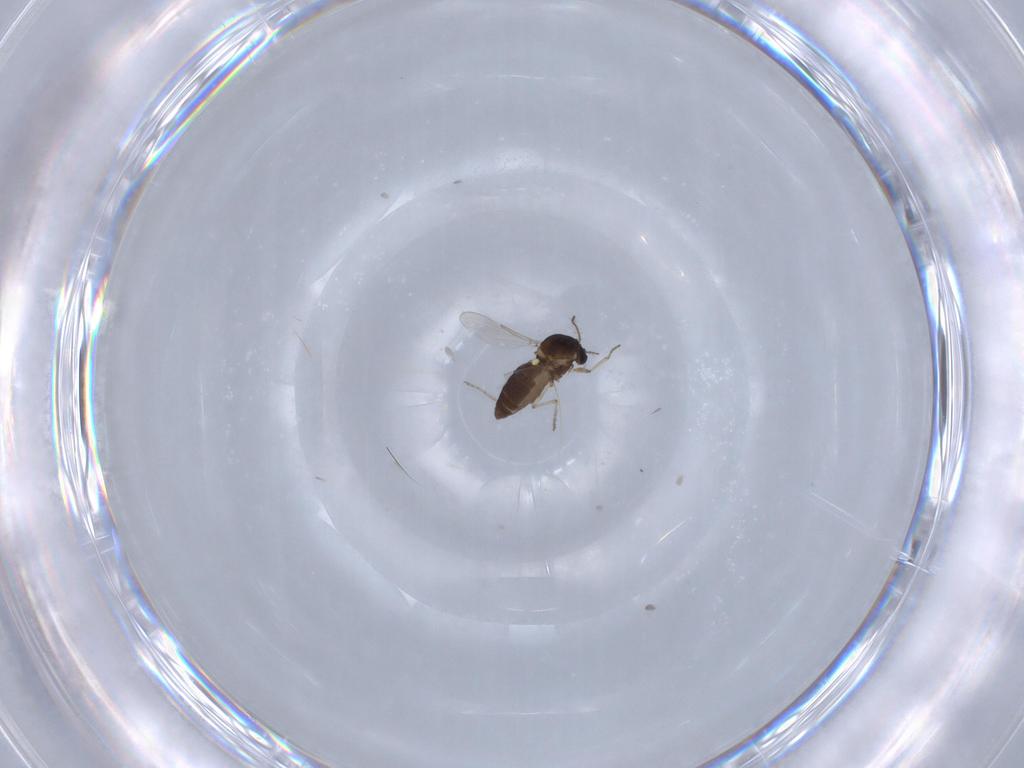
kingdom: Animalia
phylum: Arthropoda
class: Insecta
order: Diptera
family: Ceratopogonidae
